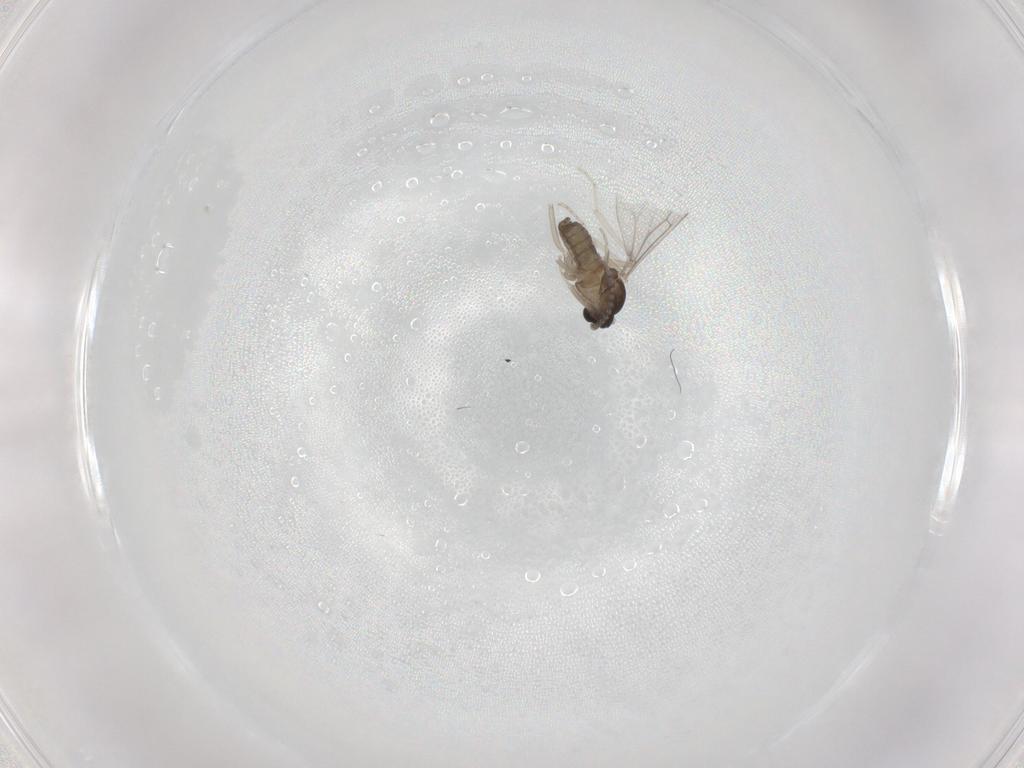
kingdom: Animalia
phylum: Arthropoda
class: Insecta
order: Diptera
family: Cecidomyiidae
